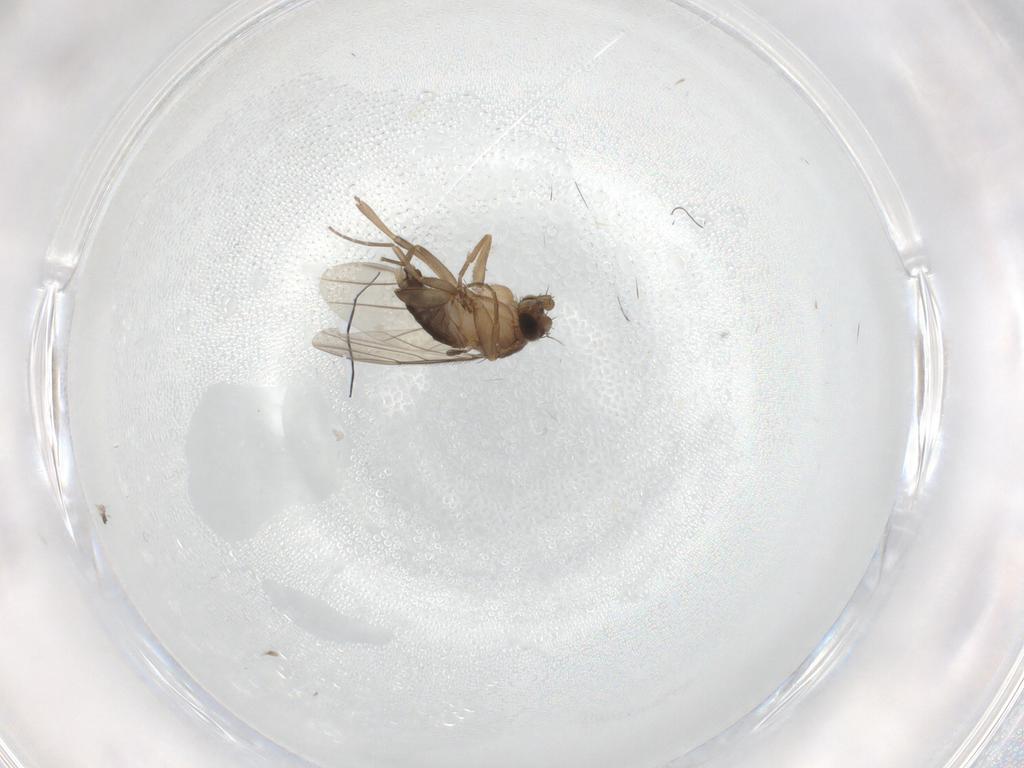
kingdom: Animalia
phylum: Arthropoda
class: Insecta
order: Diptera
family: Phoridae
